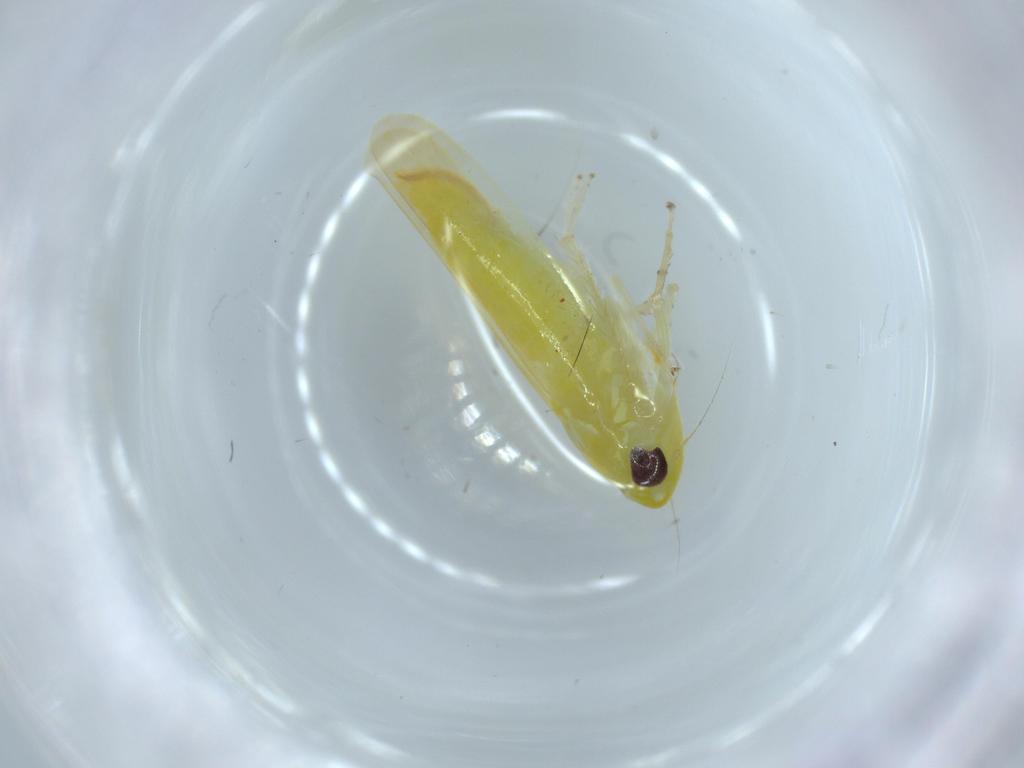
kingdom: Animalia
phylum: Arthropoda
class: Insecta
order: Hemiptera
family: Cicadellidae
